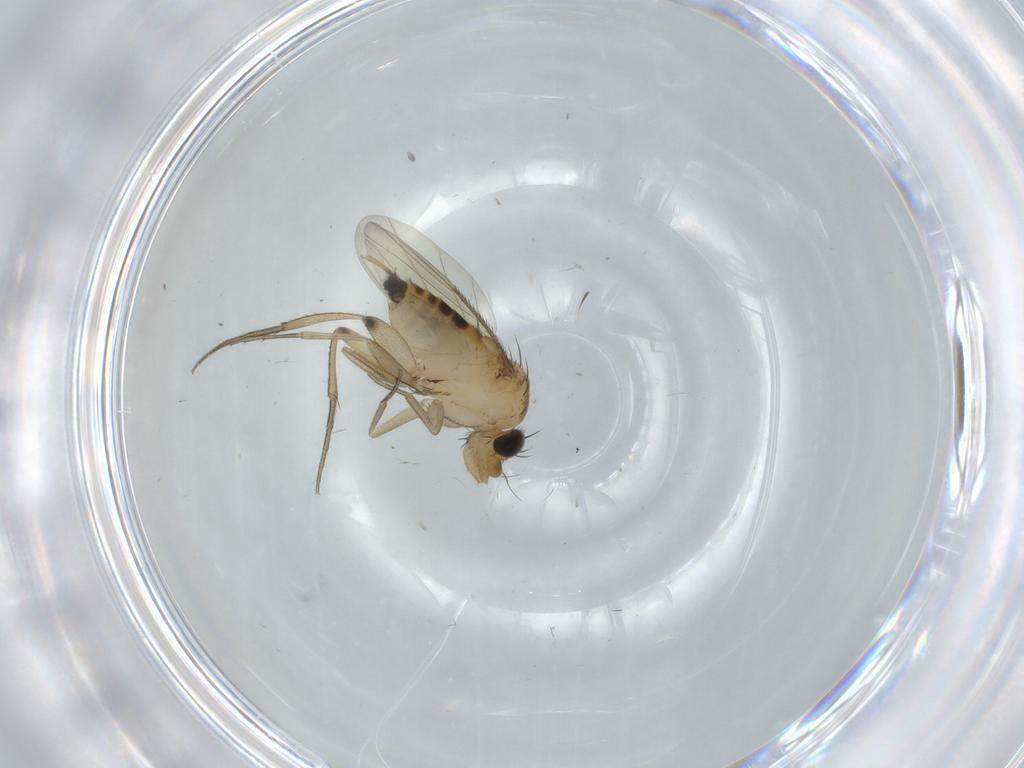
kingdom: Animalia
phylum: Arthropoda
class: Insecta
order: Diptera
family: Phoridae
